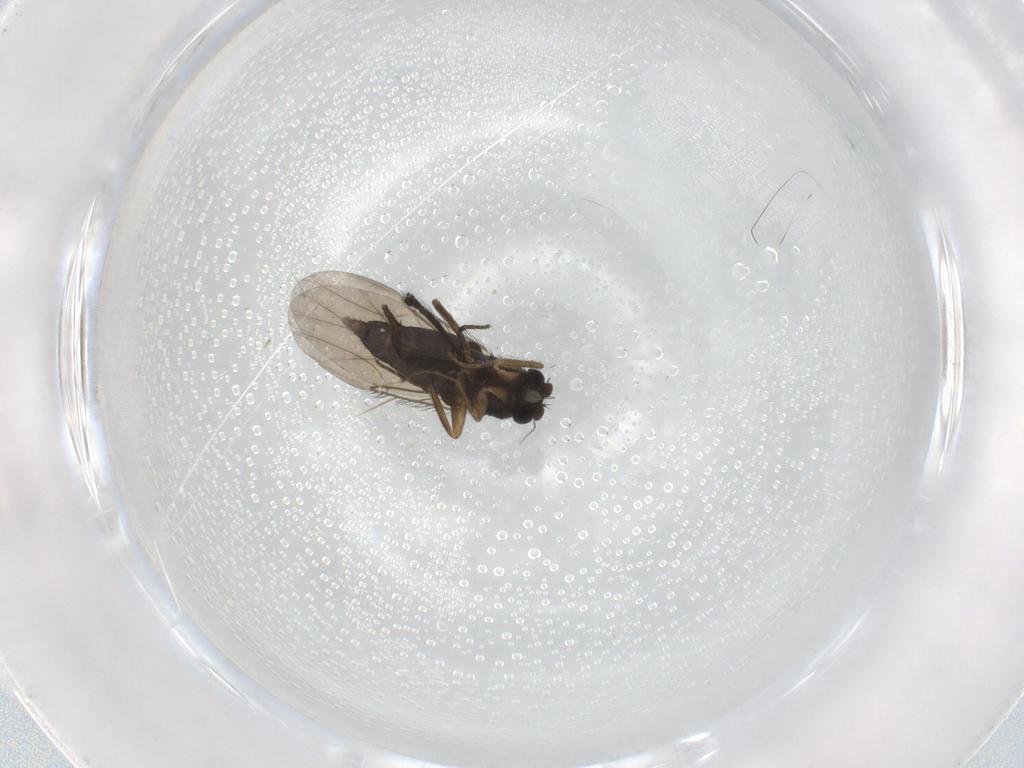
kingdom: Animalia
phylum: Arthropoda
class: Insecta
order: Diptera
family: Phoridae
